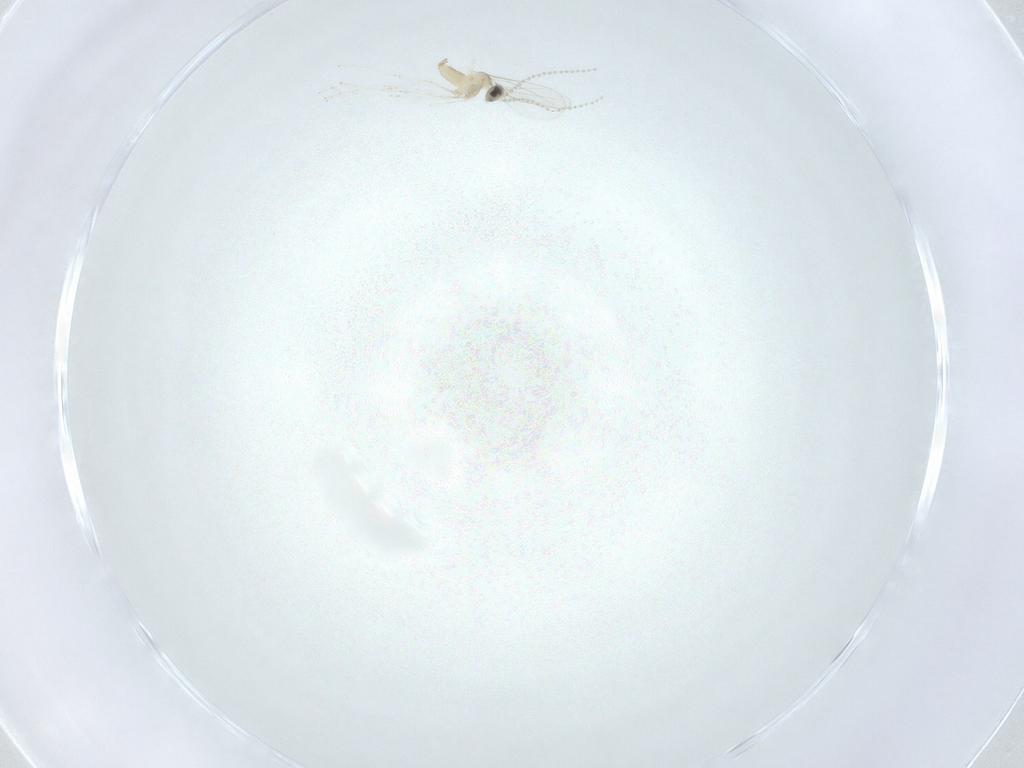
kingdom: Animalia
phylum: Arthropoda
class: Insecta
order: Diptera
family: Cecidomyiidae
